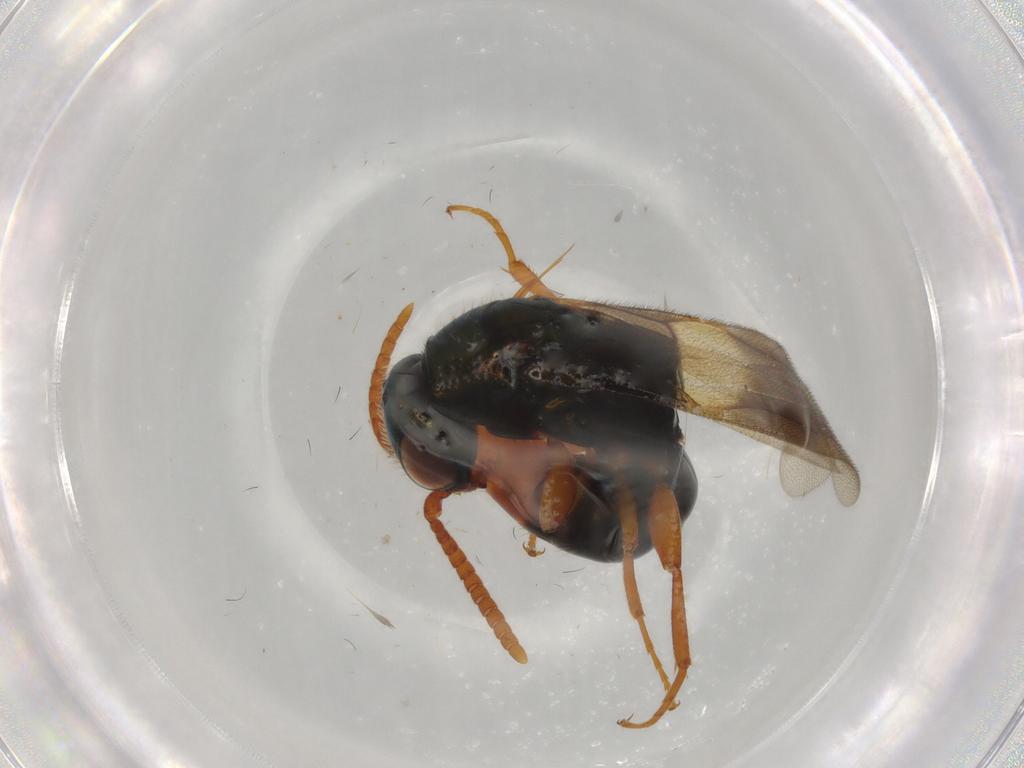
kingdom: Animalia
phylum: Arthropoda
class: Insecta
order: Hymenoptera
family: Bethylidae
